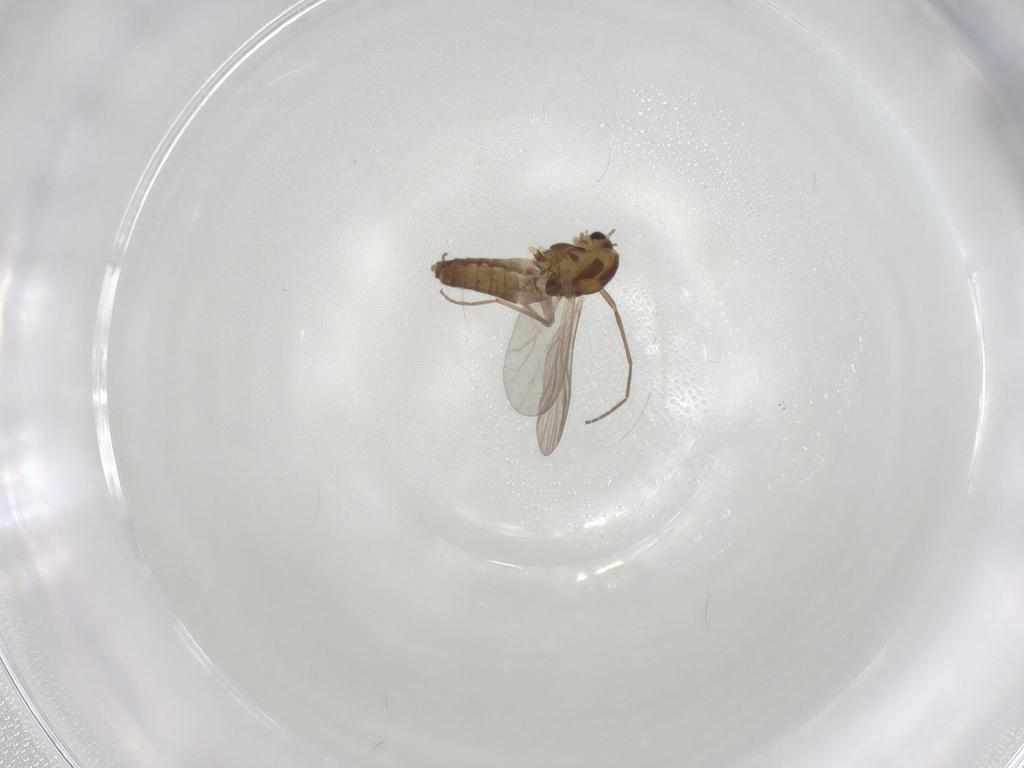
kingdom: Animalia
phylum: Arthropoda
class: Insecta
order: Diptera
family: Chironomidae
